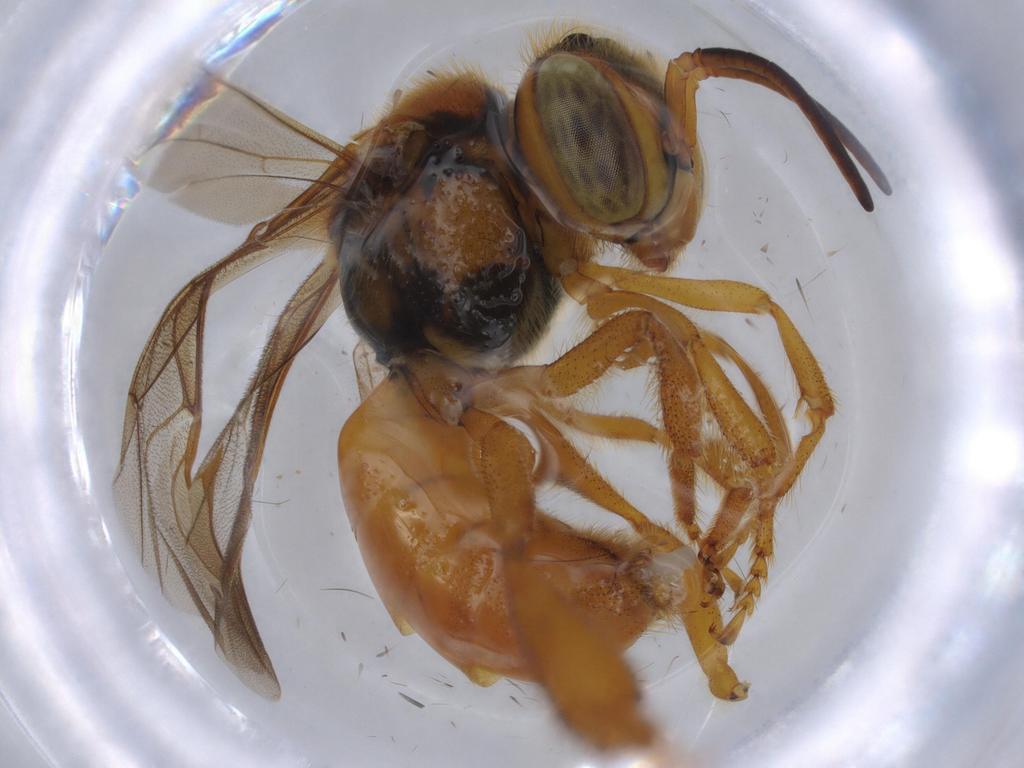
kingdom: Animalia
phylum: Arthropoda
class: Insecta
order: Hymenoptera
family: Apidae
